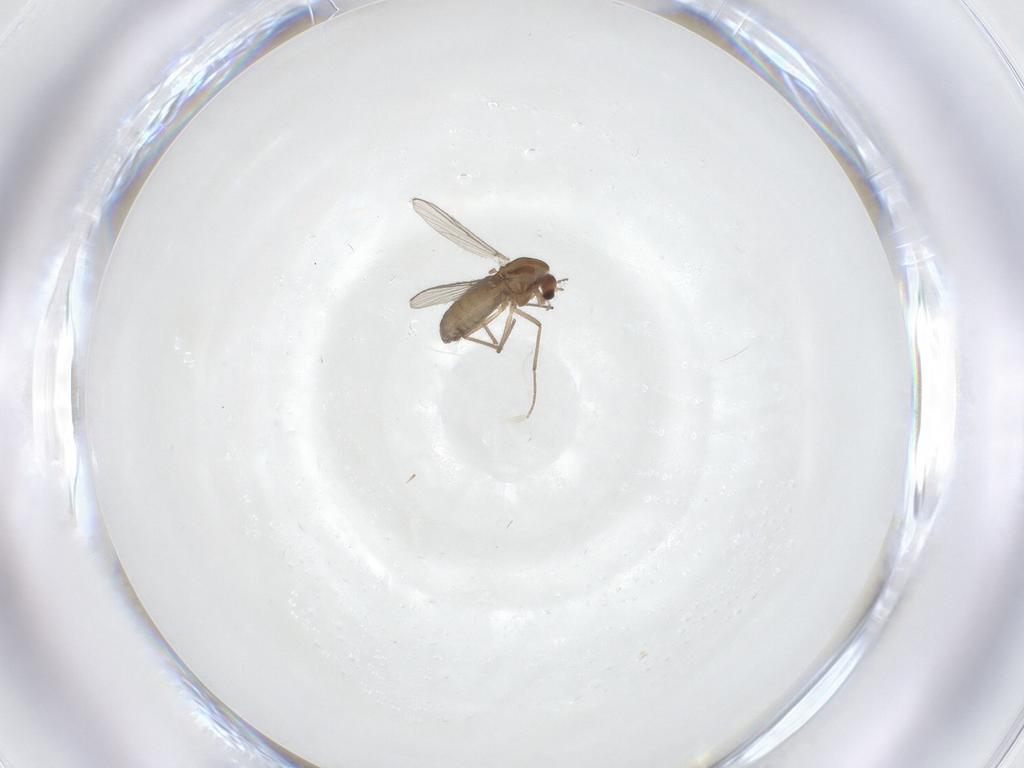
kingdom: Animalia
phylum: Arthropoda
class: Insecta
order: Diptera
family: Chironomidae
